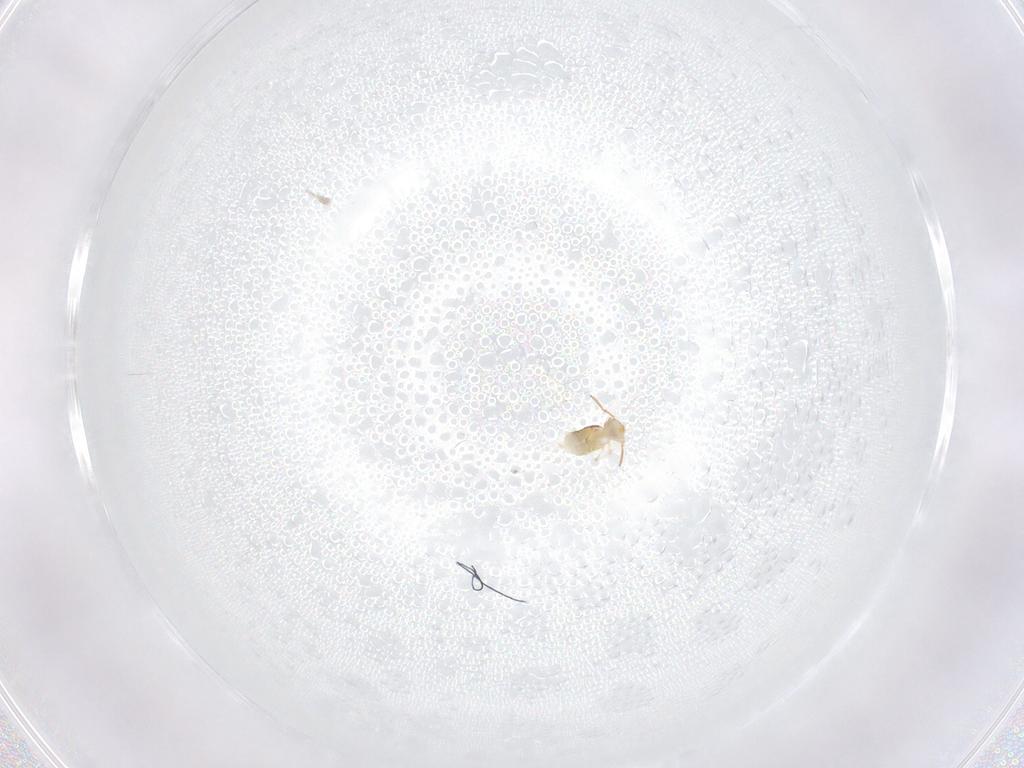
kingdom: Animalia
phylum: Arthropoda
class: Collembola
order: Symphypleona
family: Bourletiellidae
